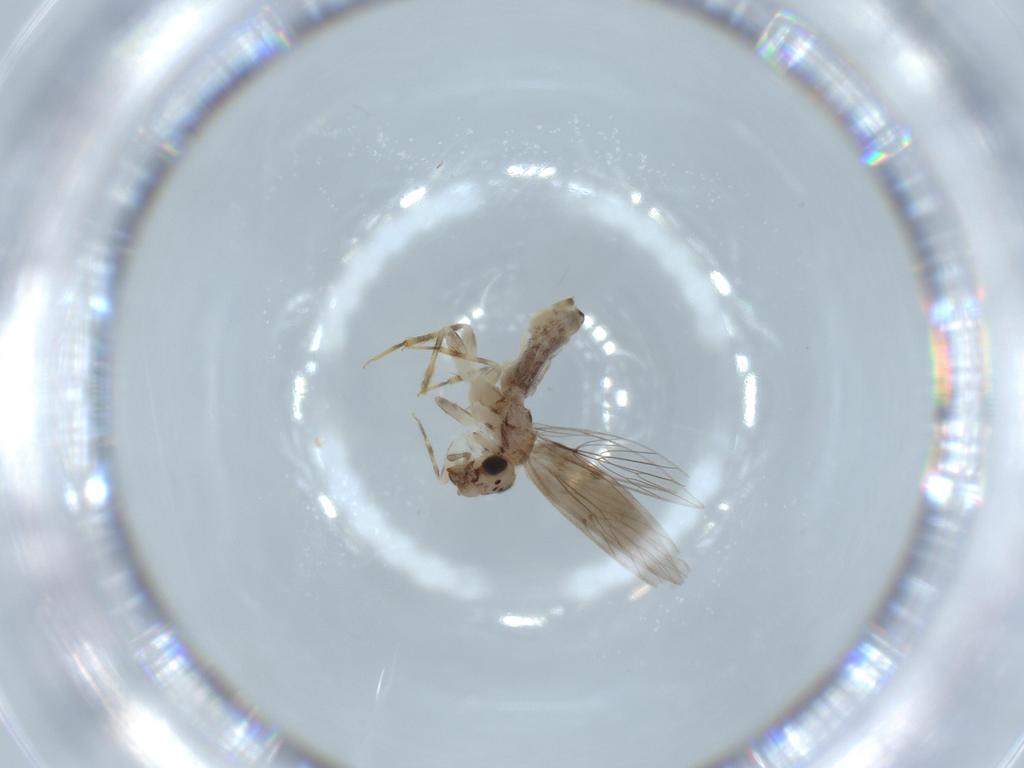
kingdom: Animalia
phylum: Arthropoda
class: Insecta
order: Psocodea
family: Lepidopsocidae
